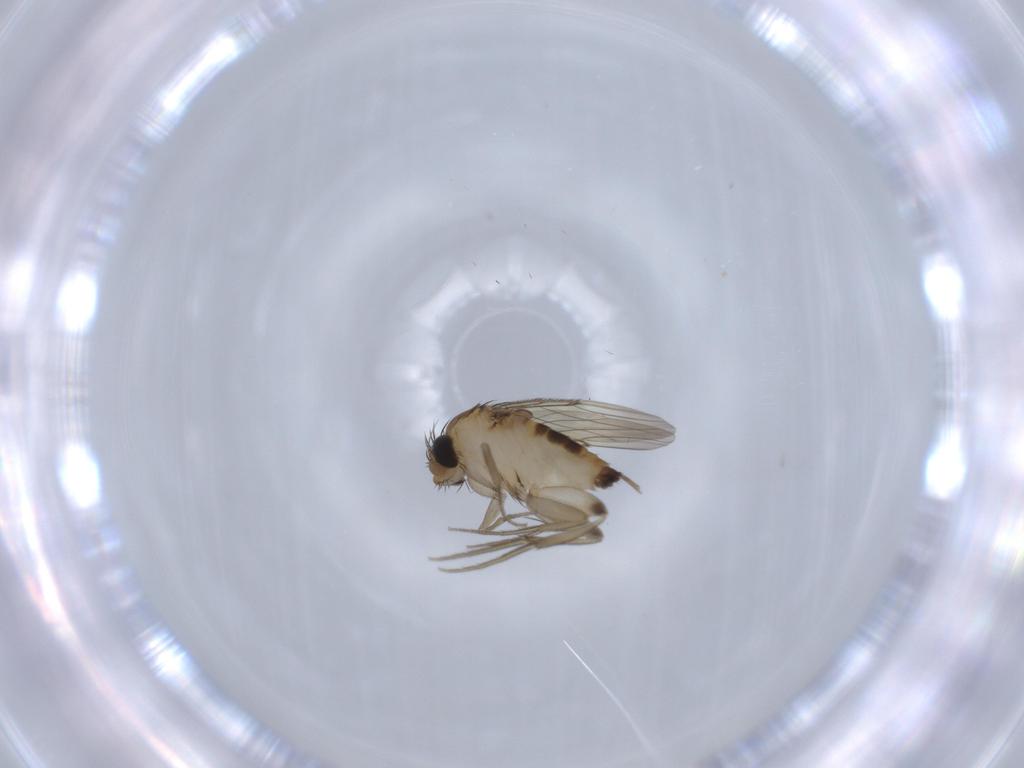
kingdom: Animalia
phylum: Arthropoda
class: Insecta
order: Diptera
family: Phoridae
